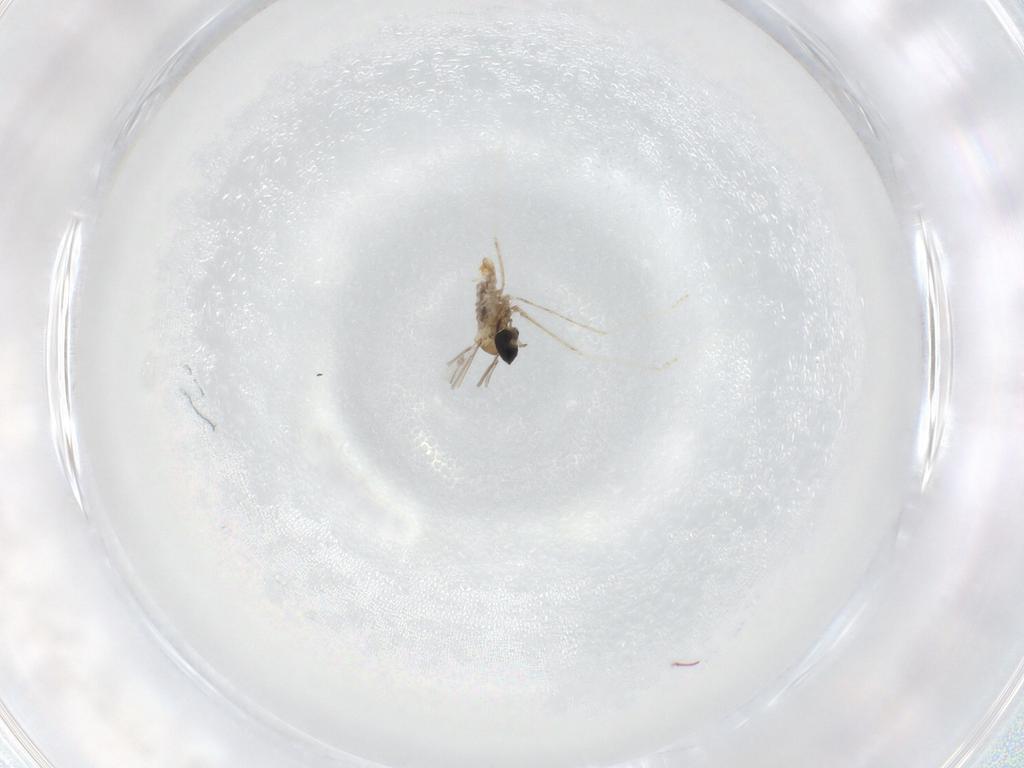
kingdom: Animalia
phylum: Arthropoda
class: Insecta
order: Diptera
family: Cecidomyiidae
